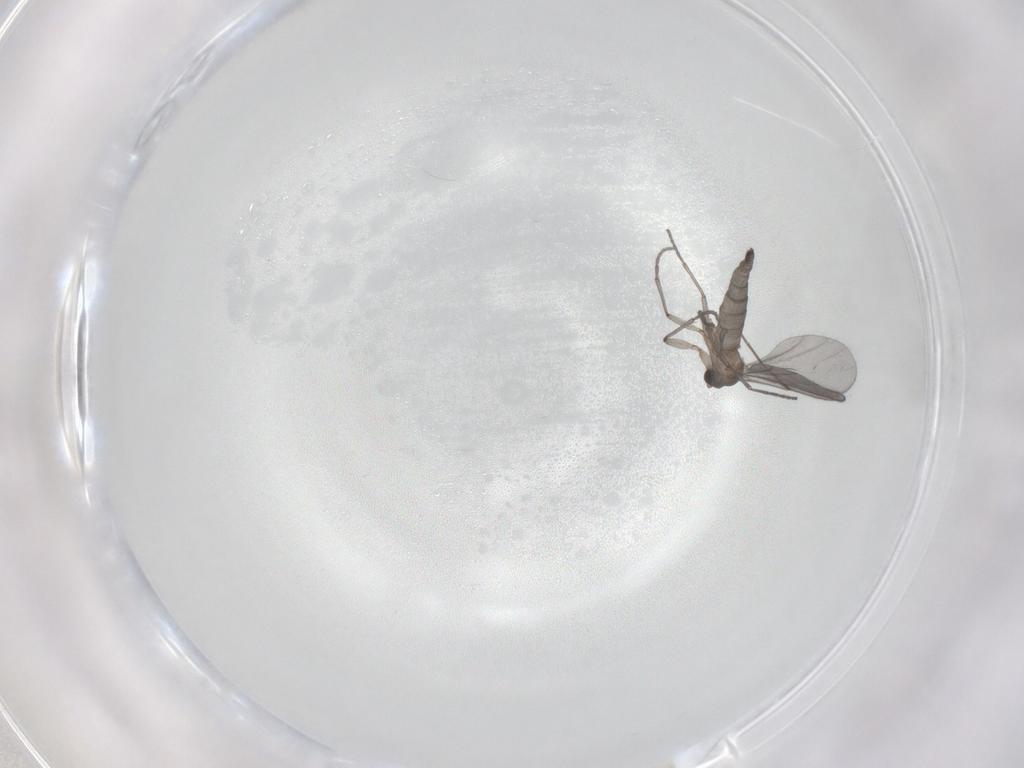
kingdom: Animalia
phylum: Arthropoda
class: Insecta
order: Diptera
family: Sciaridae
